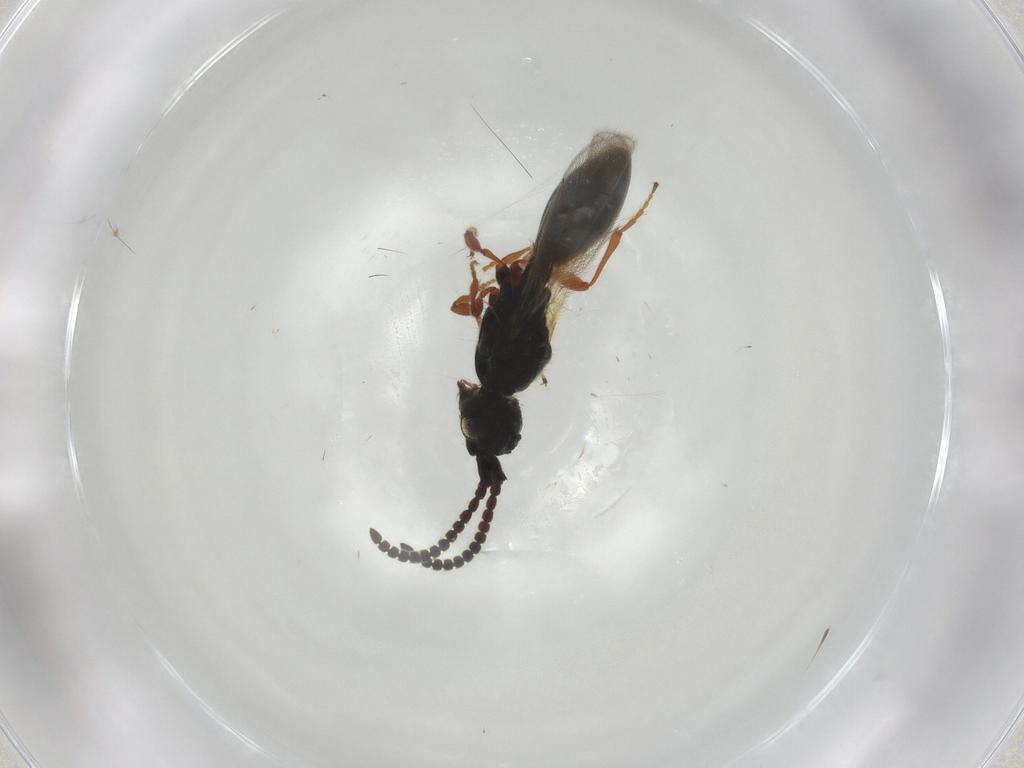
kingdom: Animalia
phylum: Arthropoda
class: Insecta
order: Hymenoptera
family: Diapriidae
